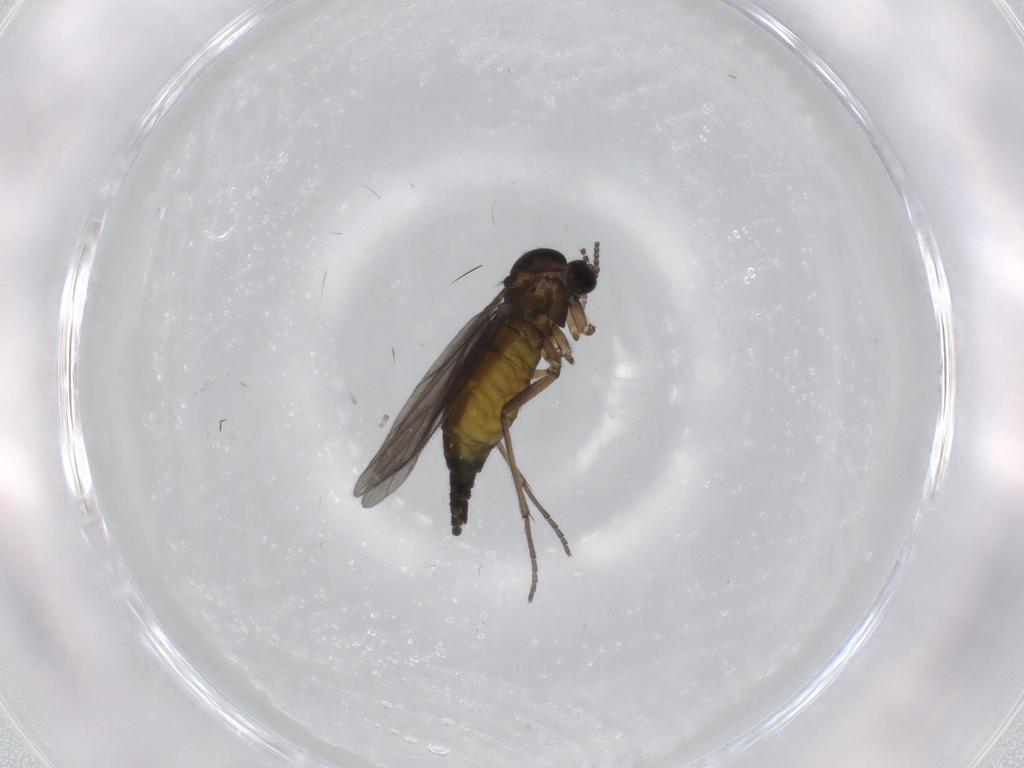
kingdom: Animalia
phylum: Arthropoda
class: Insecta
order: Diptera
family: Sciaridae
